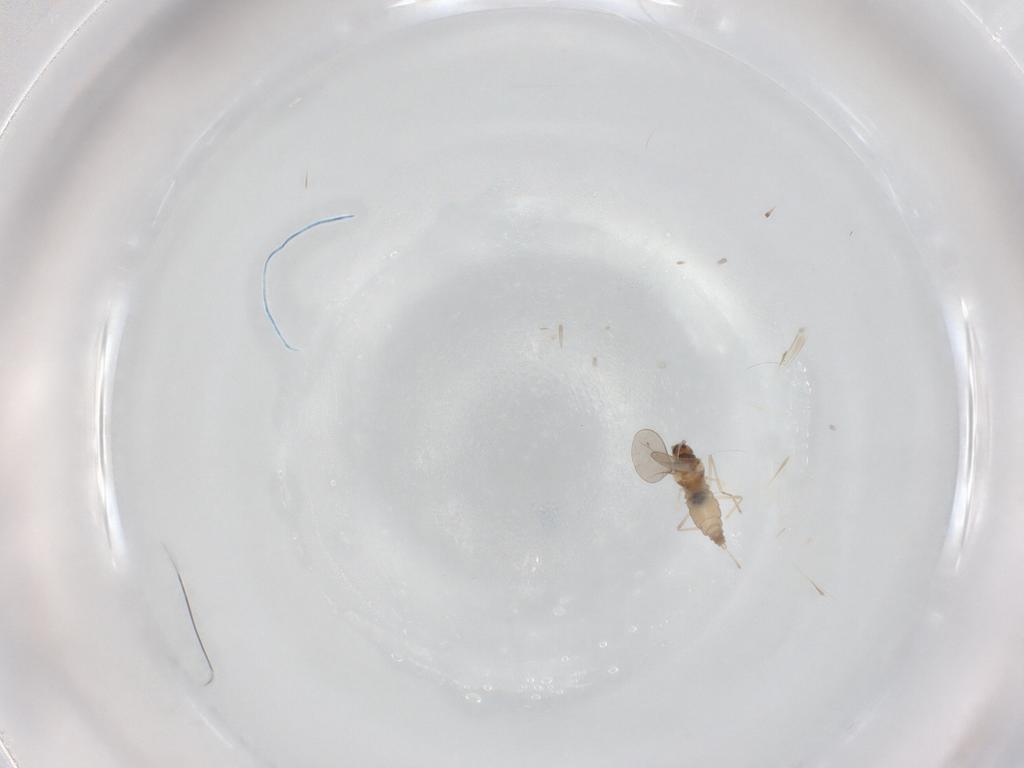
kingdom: Animalia
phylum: Arthropoda
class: Insecta
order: Diptera
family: Cecidomyiidae
